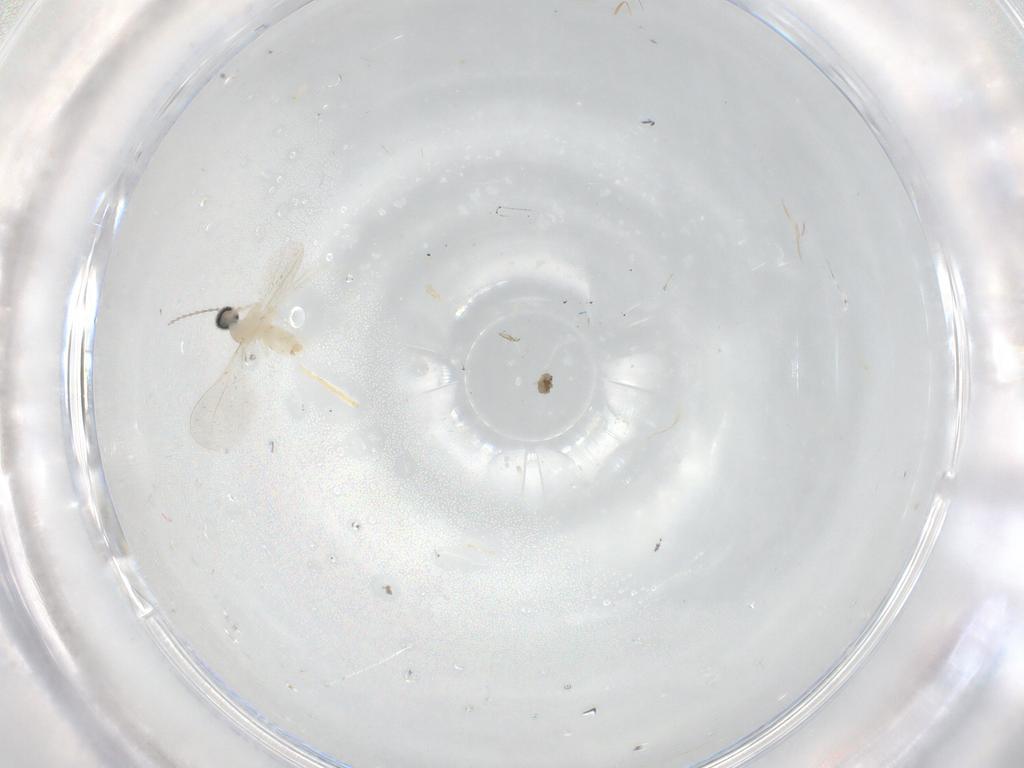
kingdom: Animalia
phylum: Arthropoda
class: Insecta
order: Diptera
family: Cecidomyiidae
